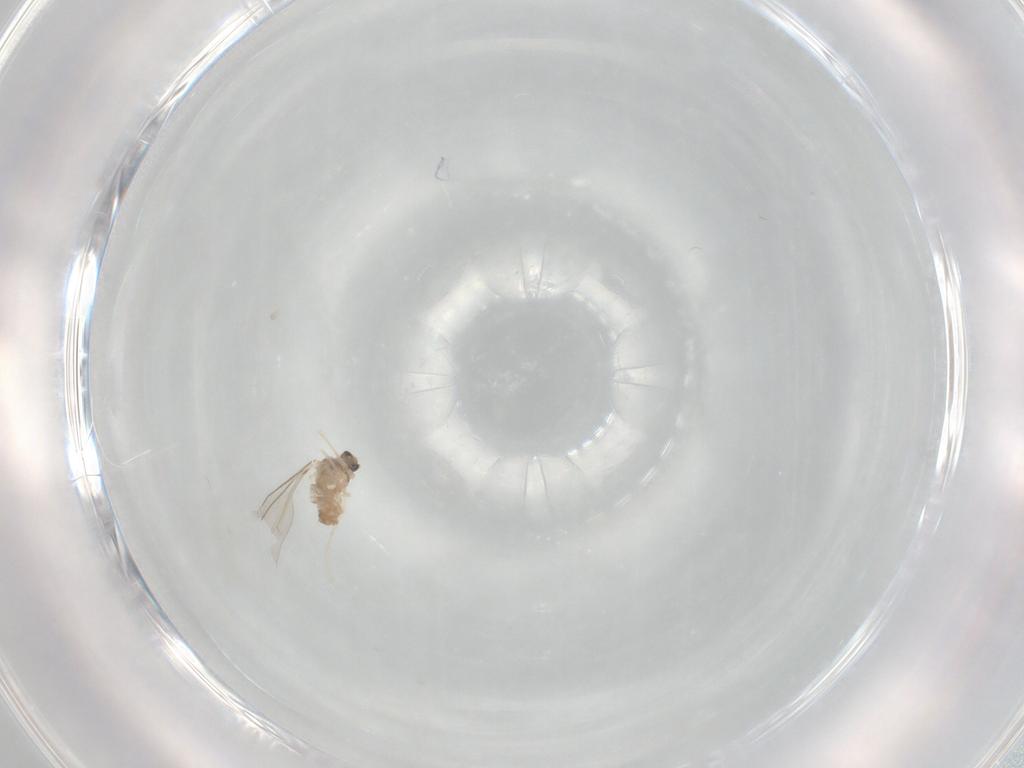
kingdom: Animalia
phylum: Arthropoda
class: Insecta
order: Diptera
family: Cecidomyiidae
